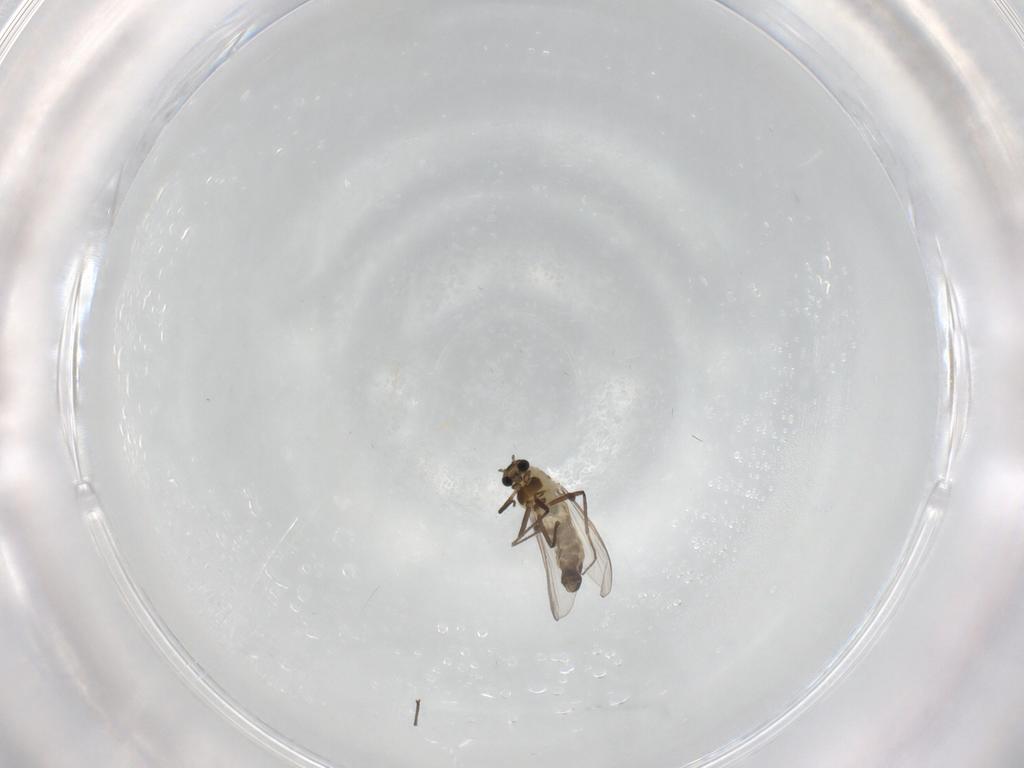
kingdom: Animalia
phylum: Arthropoda
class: Insecta
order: Diptera
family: Chironomidae
